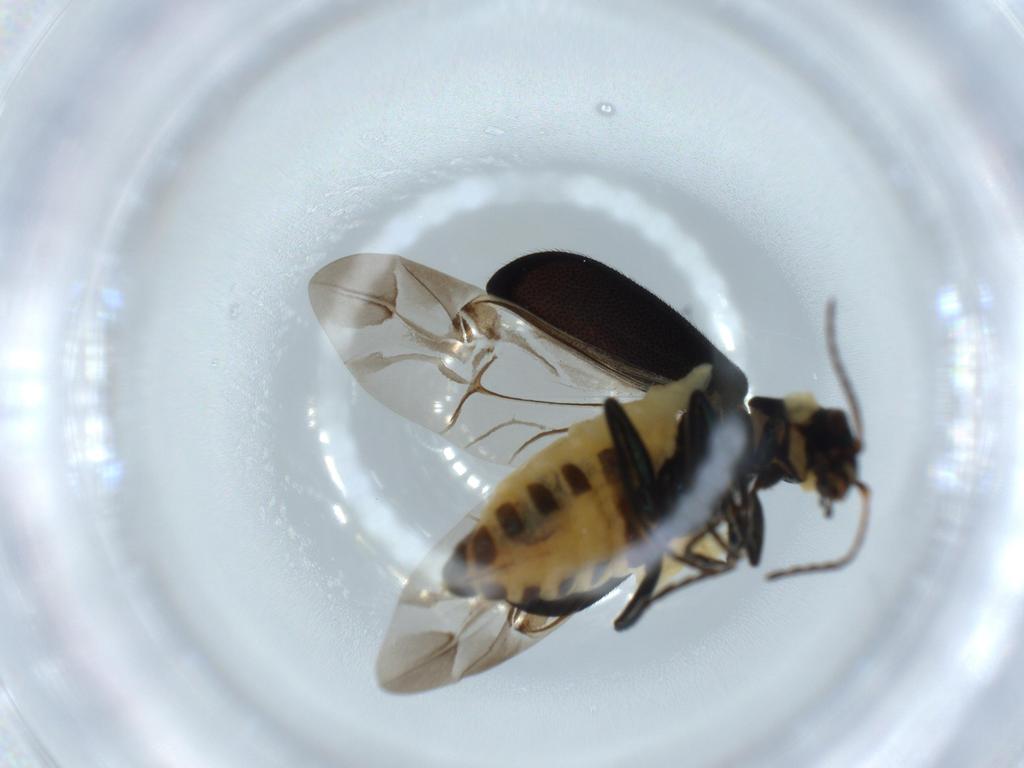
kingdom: Animalia
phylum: Arthropoda
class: Insecta
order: Coleoptera
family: Melyridae
